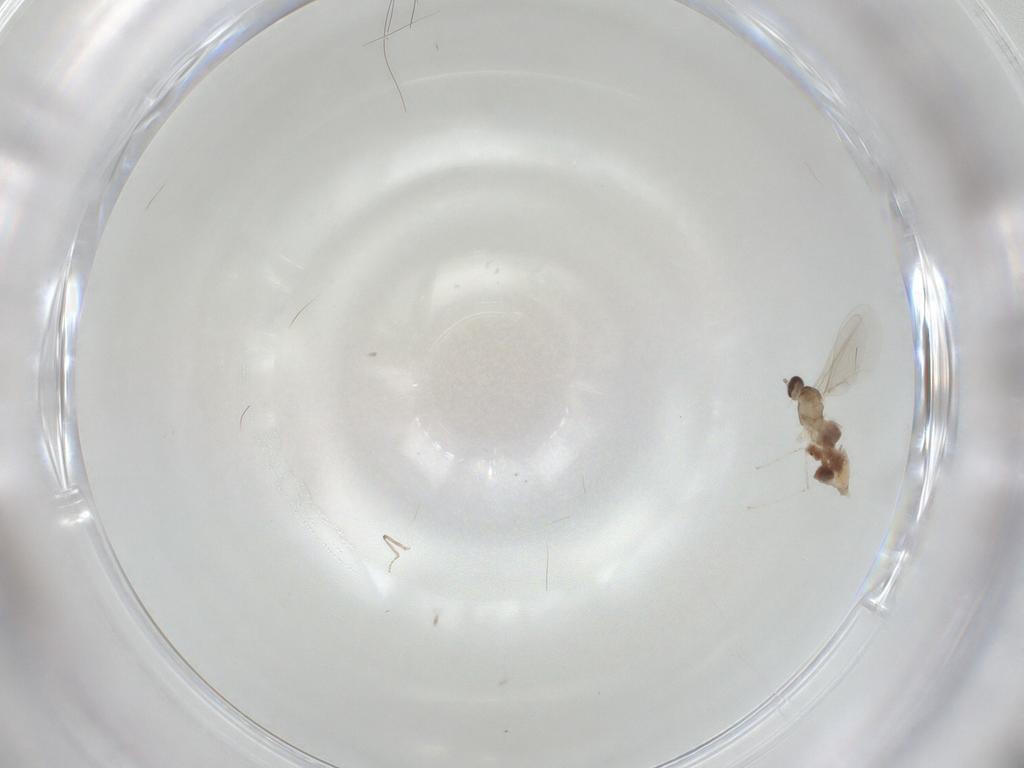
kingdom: Animalia
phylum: Arthropoda
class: Insecta
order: Diptera
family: Cecidomyiidae
